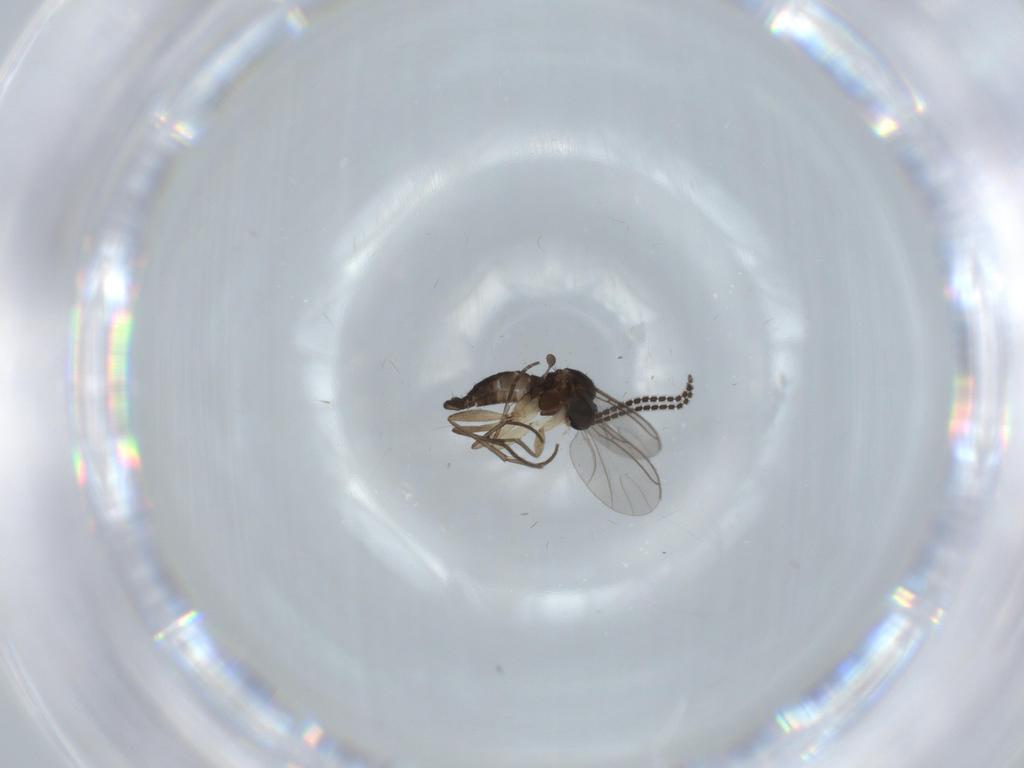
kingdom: Animalia
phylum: Arthropoda
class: Insecta
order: Diptera
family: Sciaridae
